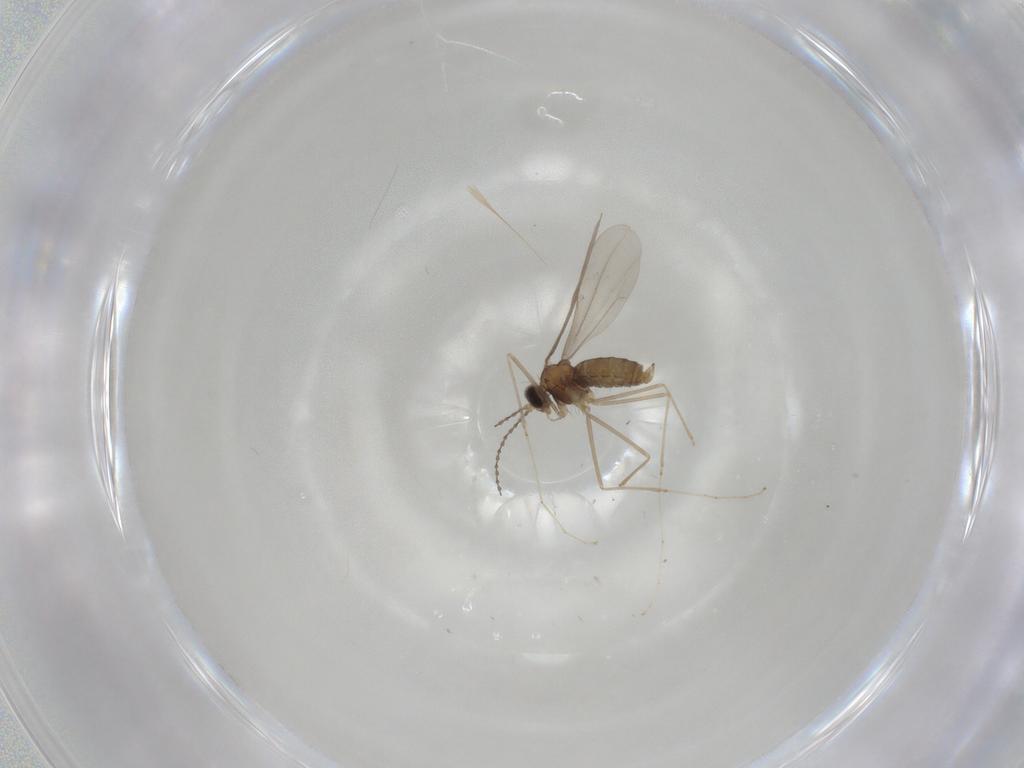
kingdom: Animalia
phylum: Arthropoda
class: Insecta
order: Diptera
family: Cecidomyiidae
